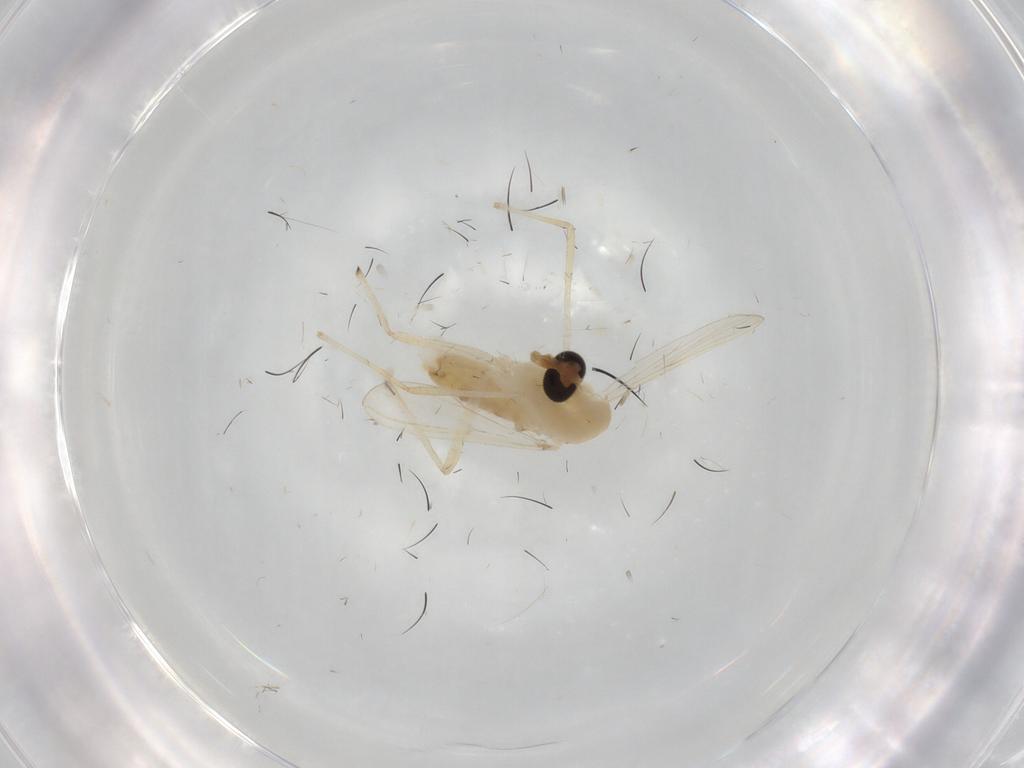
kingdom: Animalia
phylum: Arthropoda
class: Insecta
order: Diptera
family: Chironomidae
